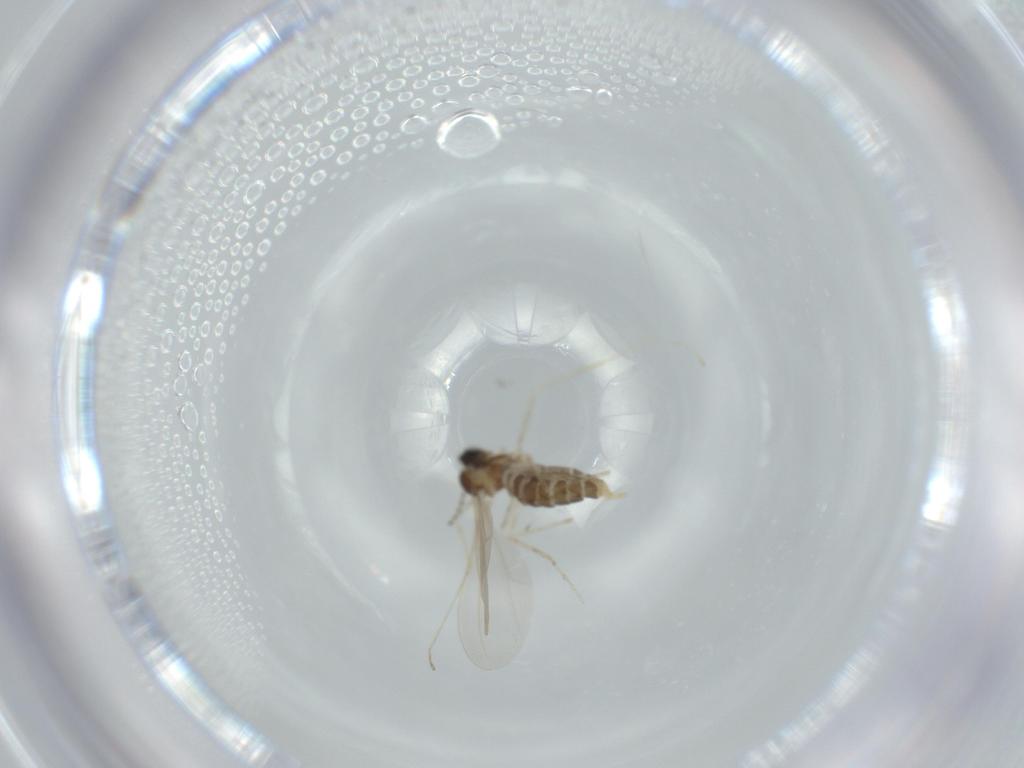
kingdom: Animalia
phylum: Arthropoda
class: Insecta
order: Diptera
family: Cecidomyiidae
